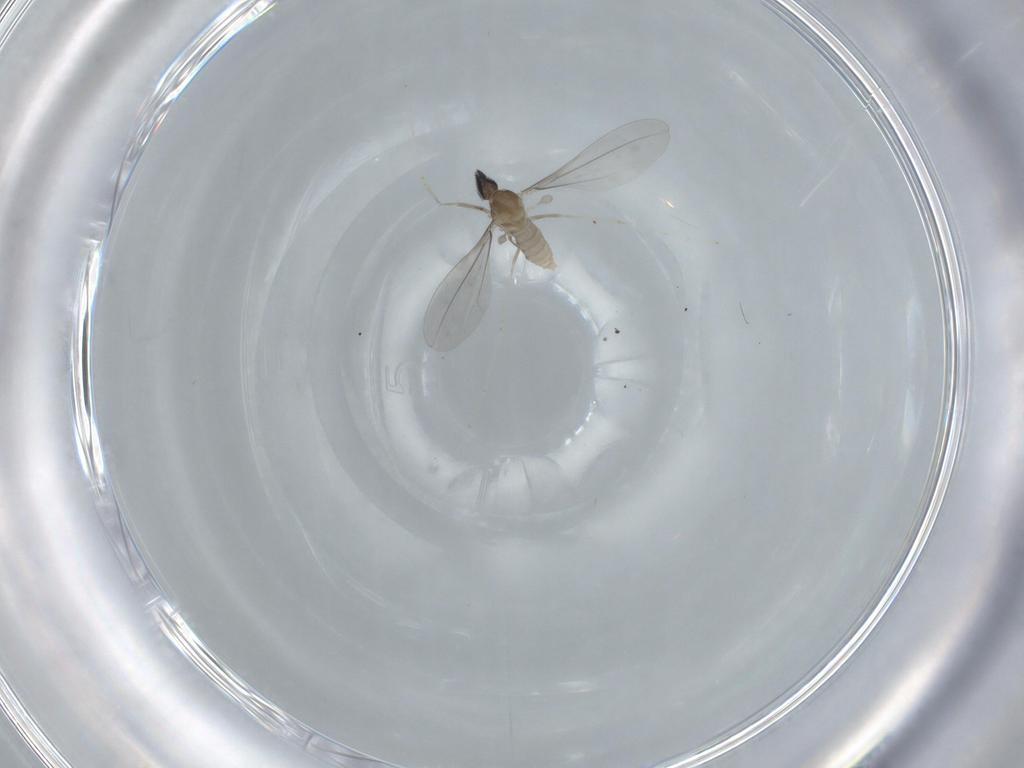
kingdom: Animalia
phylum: Arthropoda
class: Insecta
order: Diptera
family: Cecidomyiidae
